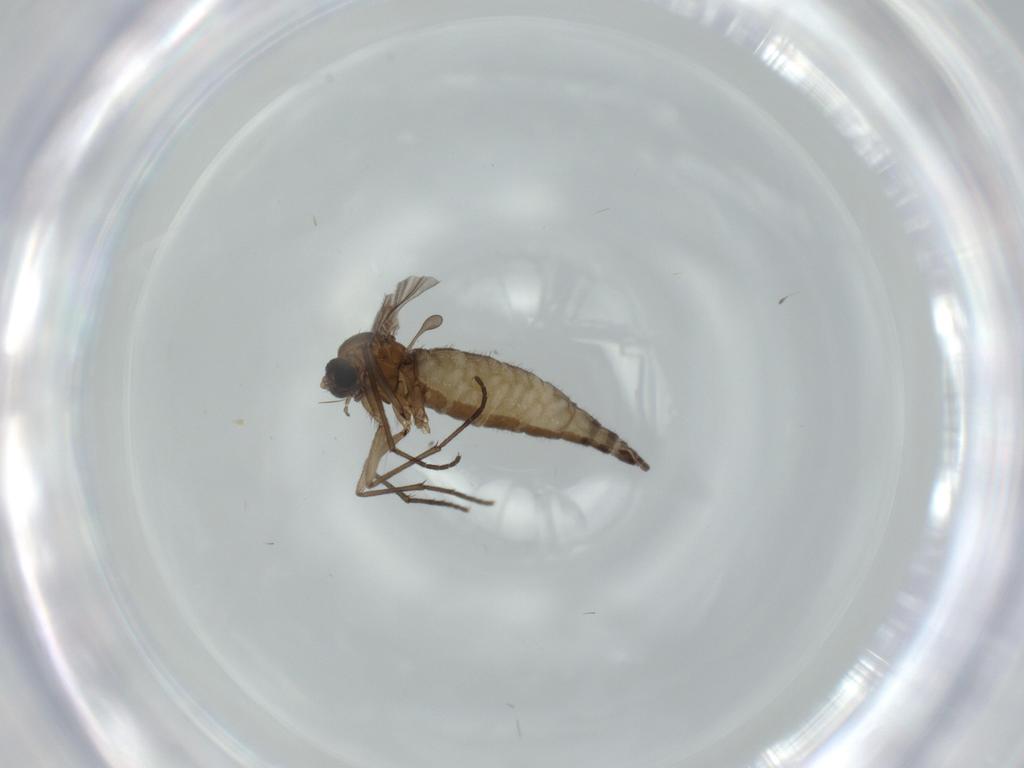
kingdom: Animalia
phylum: Arthropoda
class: Insecta
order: Diptera
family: Sciaridae
